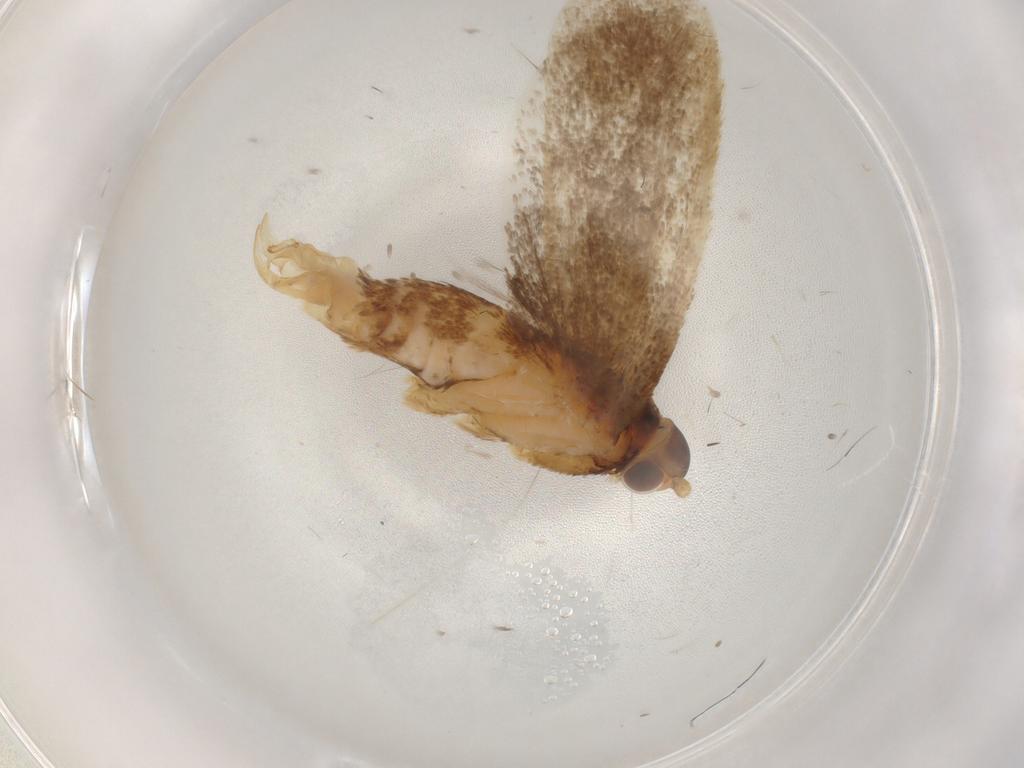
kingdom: Animalia
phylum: Arthropoda
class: Insecta
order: Lepidoptera
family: Lecithoceridae
